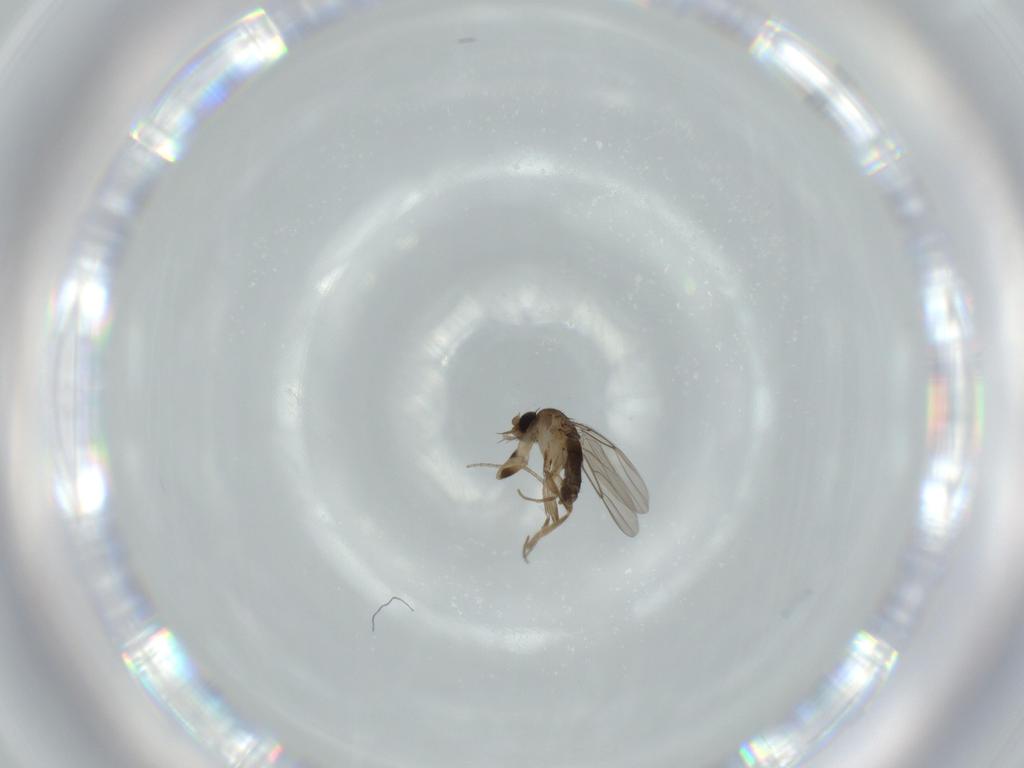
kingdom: Animalia
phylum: Arthropoda
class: Insecta
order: Diptera
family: Phoridae
